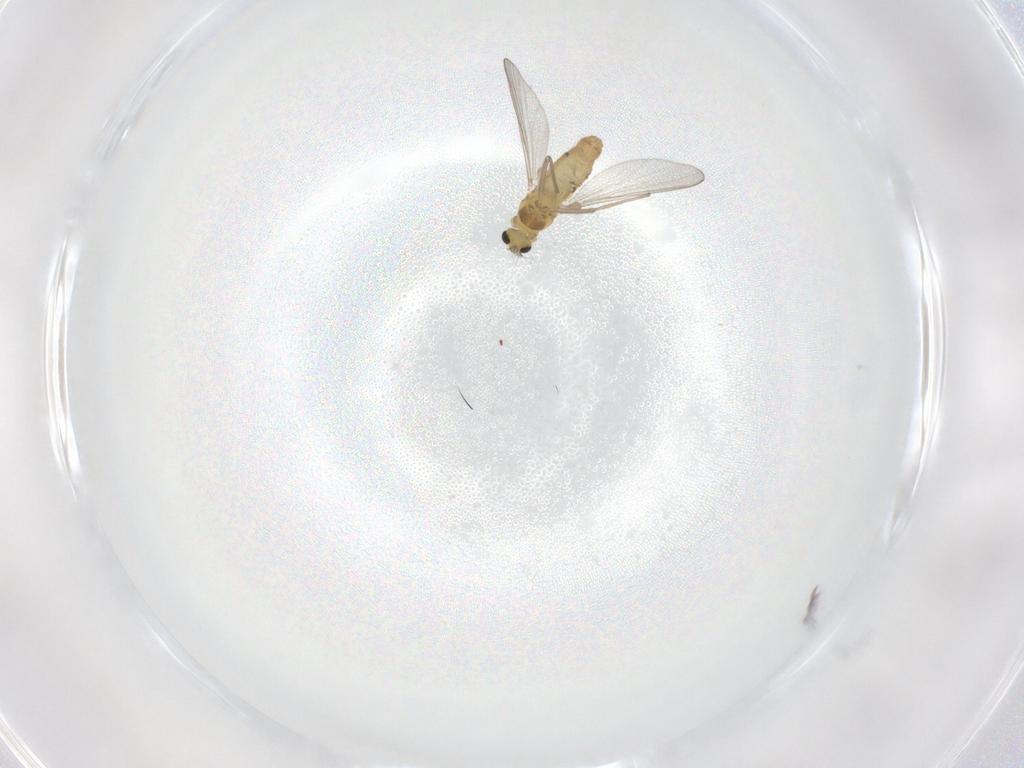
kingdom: Animalia
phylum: Arthropoda
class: Insecta
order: Diptera
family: Chironomidae
